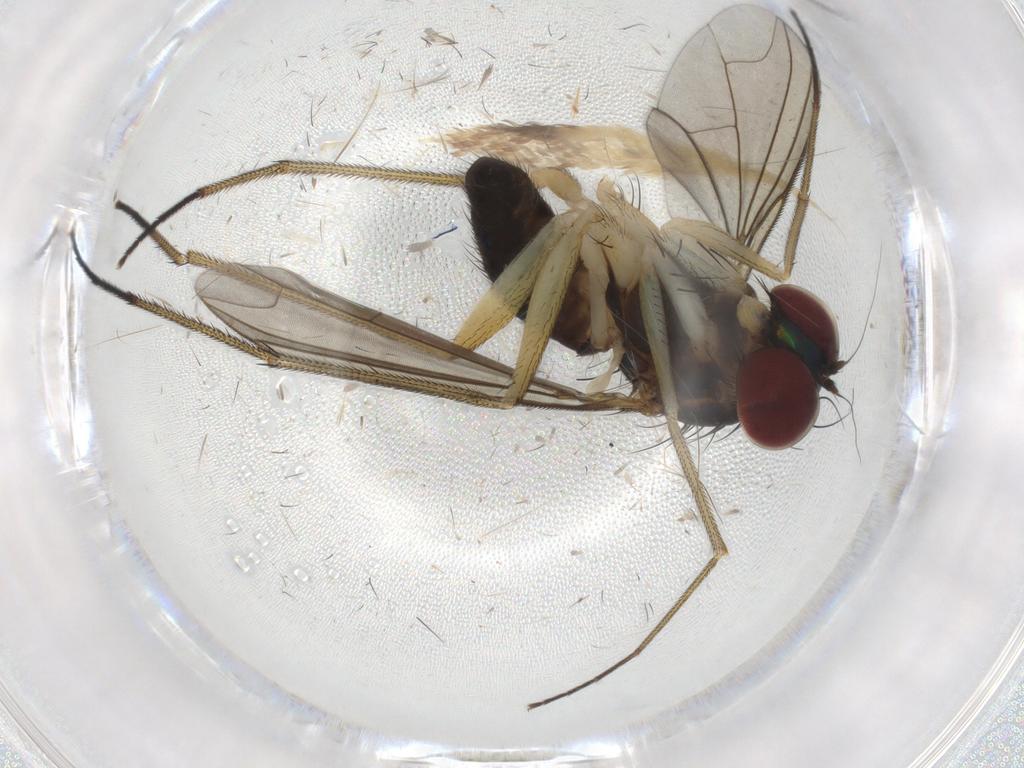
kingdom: Animalia
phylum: Arthropoda
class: Insecta
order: Diptera
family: Dolichopodidae
